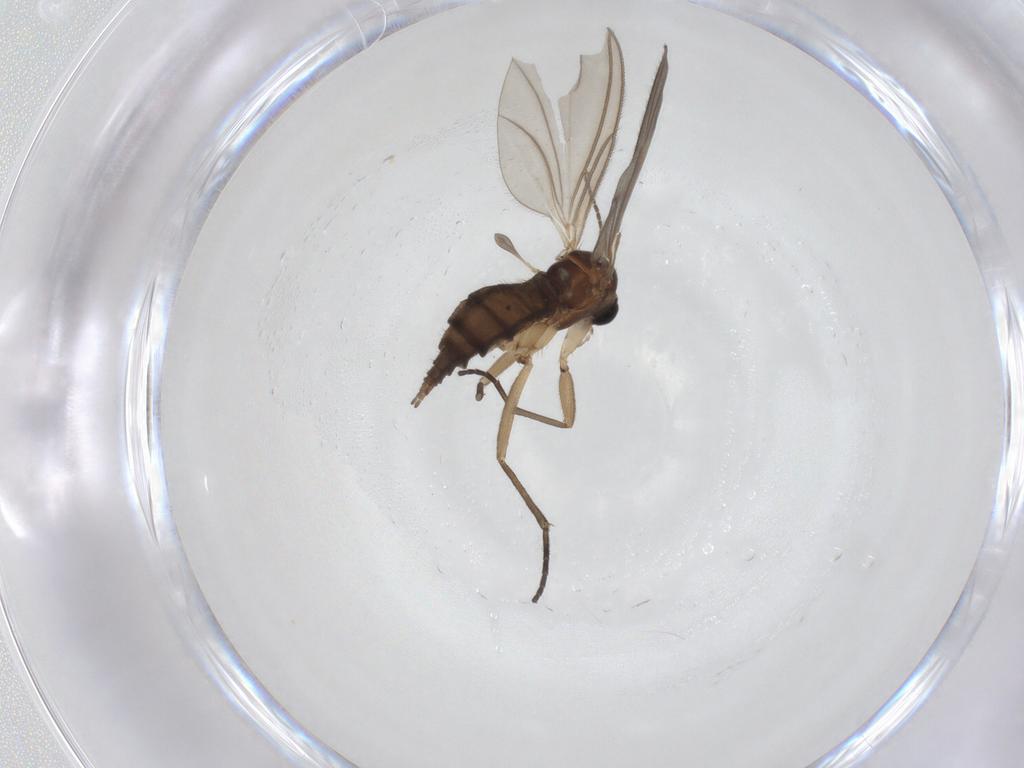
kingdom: Animalia
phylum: Arthropoda
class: Insecta
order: Diptera
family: Sciaridae
